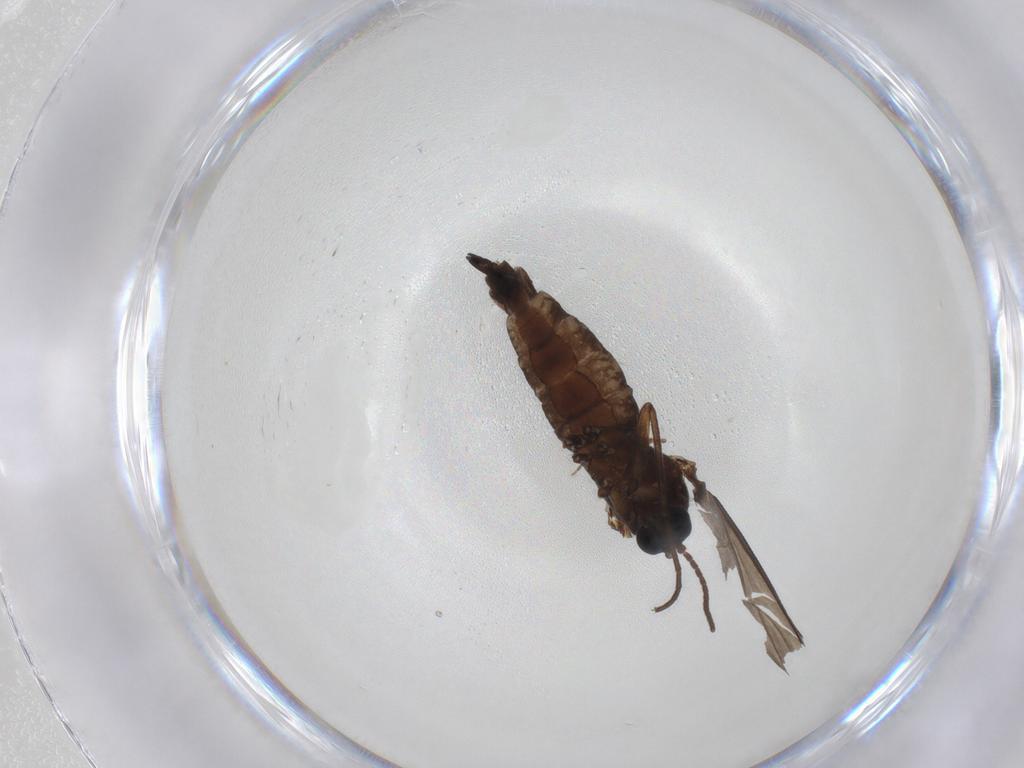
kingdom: Animalia
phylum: Arthropoda
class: Insecta
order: Diptera
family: Sciaridae
